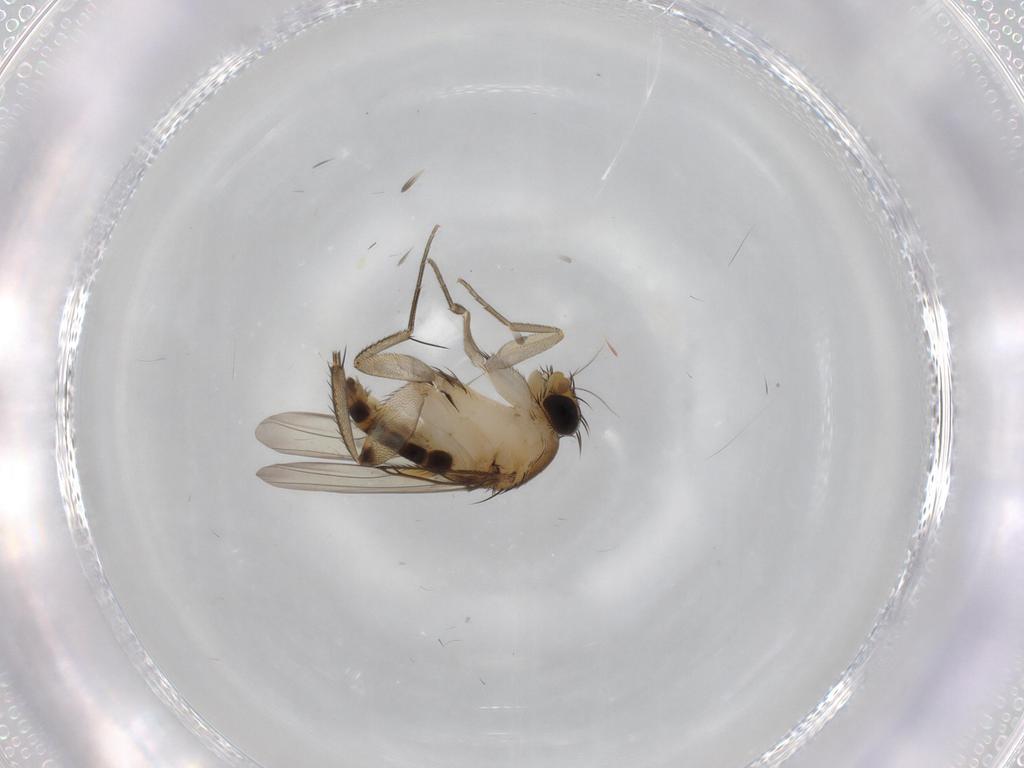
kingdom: Animalia
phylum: Arthropoda
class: Insecta
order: Diptera
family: Phoridae
